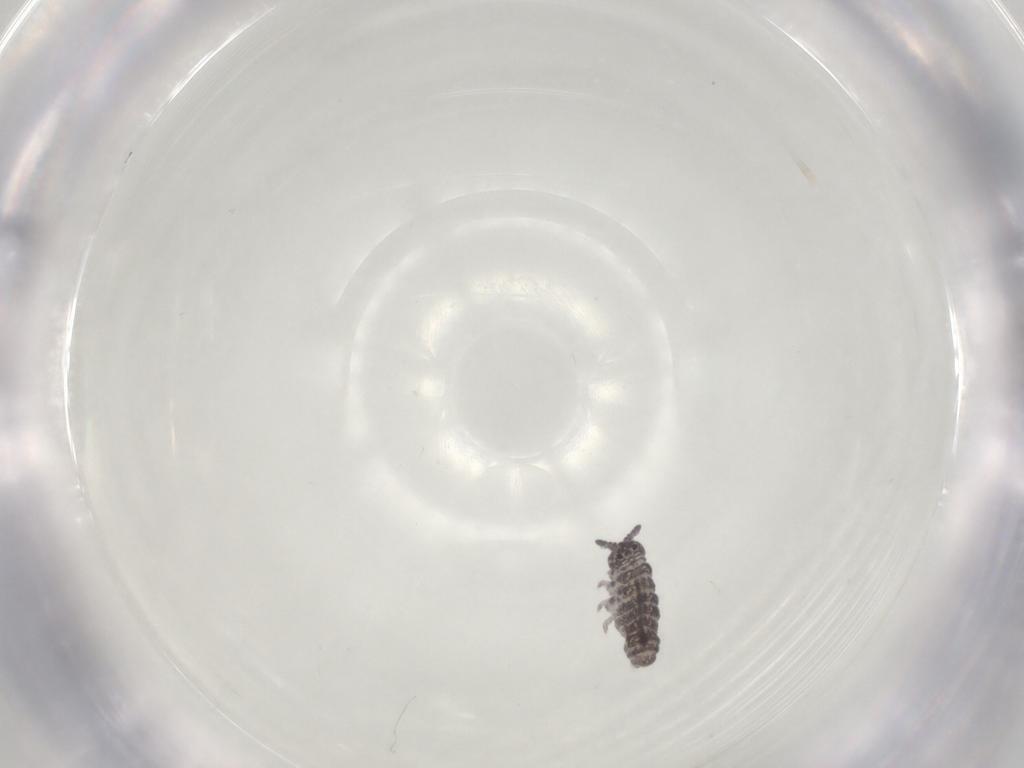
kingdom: Animalia
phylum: Arthropoda
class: Collembola
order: Poduromorpha
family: Hypogastruridae
